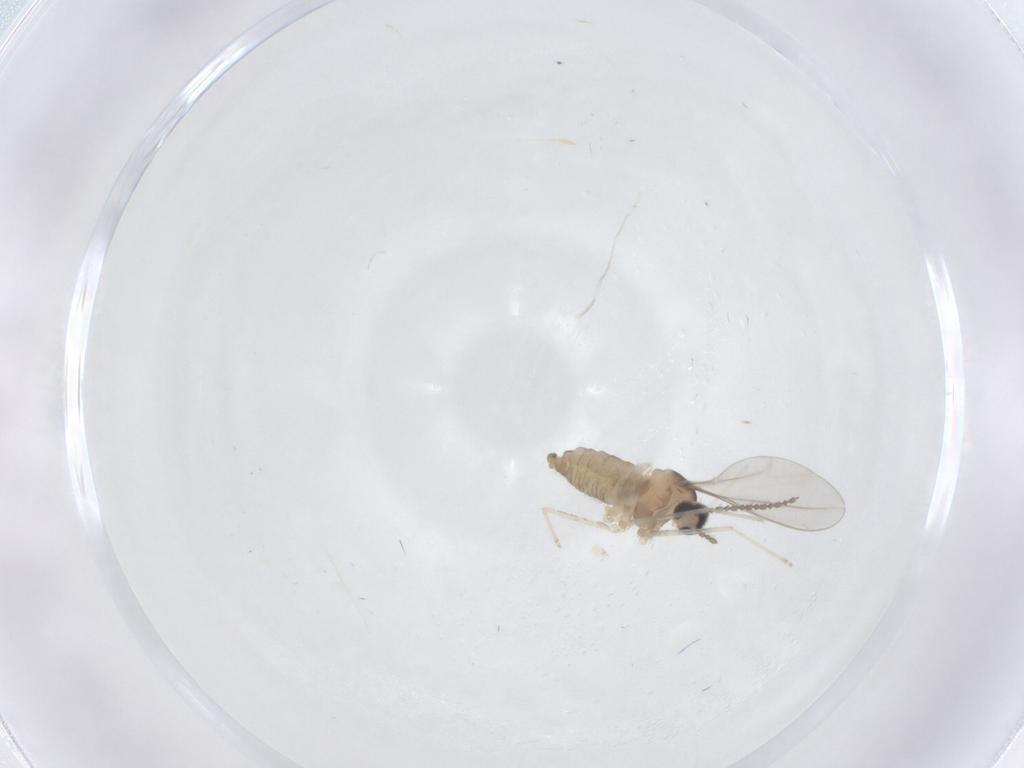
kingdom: Animalia
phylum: Arthropoda
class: Insecta
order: Diptera
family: Cecidomyiidae
